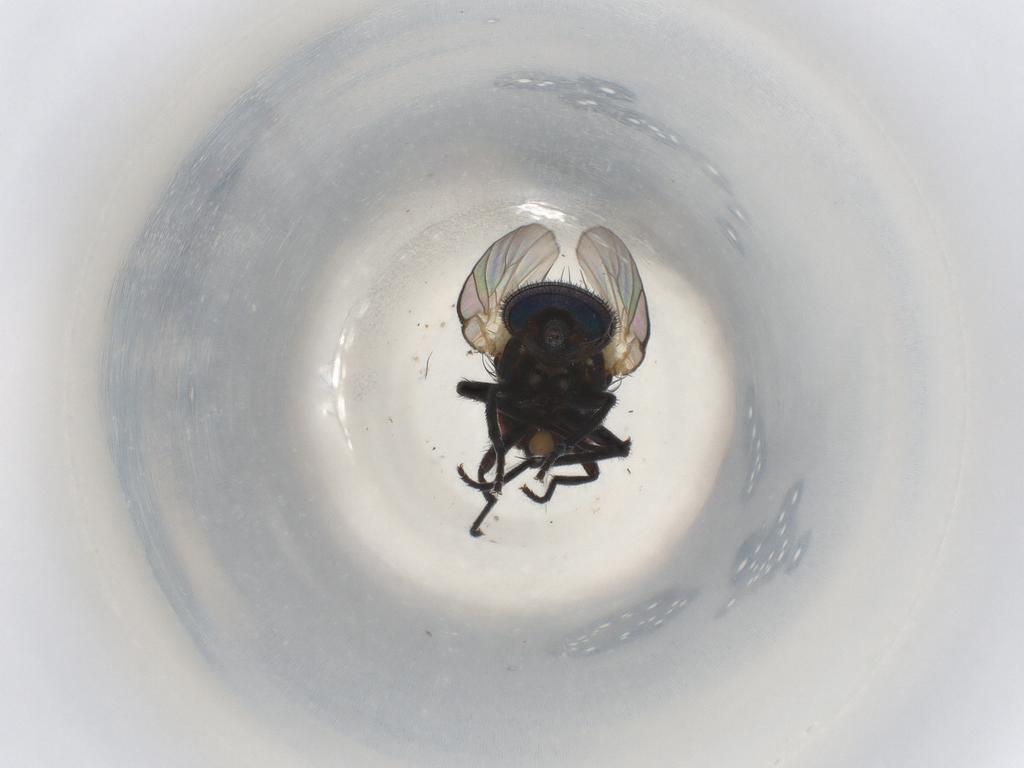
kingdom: Animalia
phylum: Arthropoda
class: Insecta
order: Diptera
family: Agromyzidae
